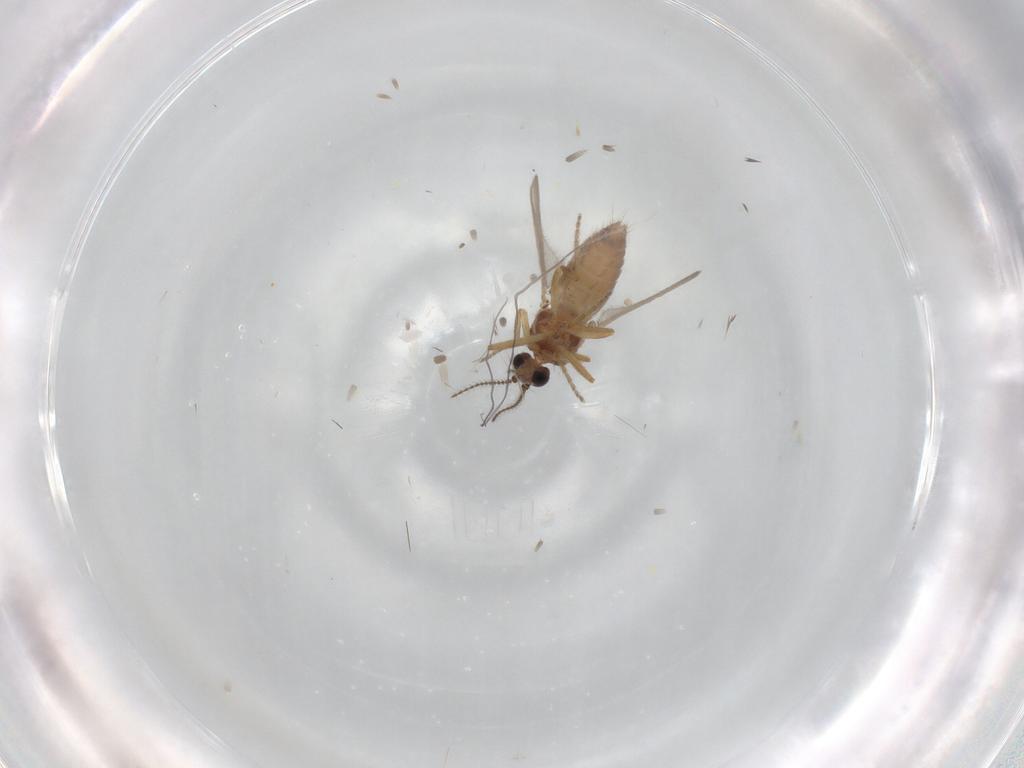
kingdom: Animalia
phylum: Arthropoda
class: Insecta
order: Diptera
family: Ceratopogonidae
